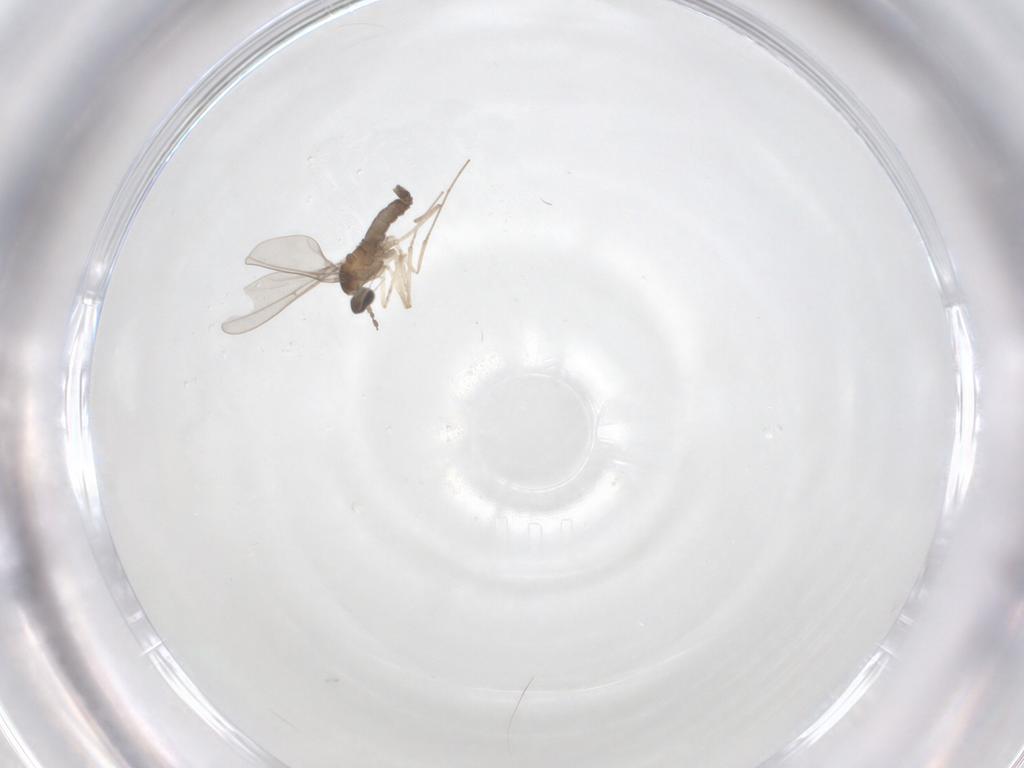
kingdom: Animalia
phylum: Arthropoda
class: Insecta
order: Diptera
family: Cecidomyiidae
